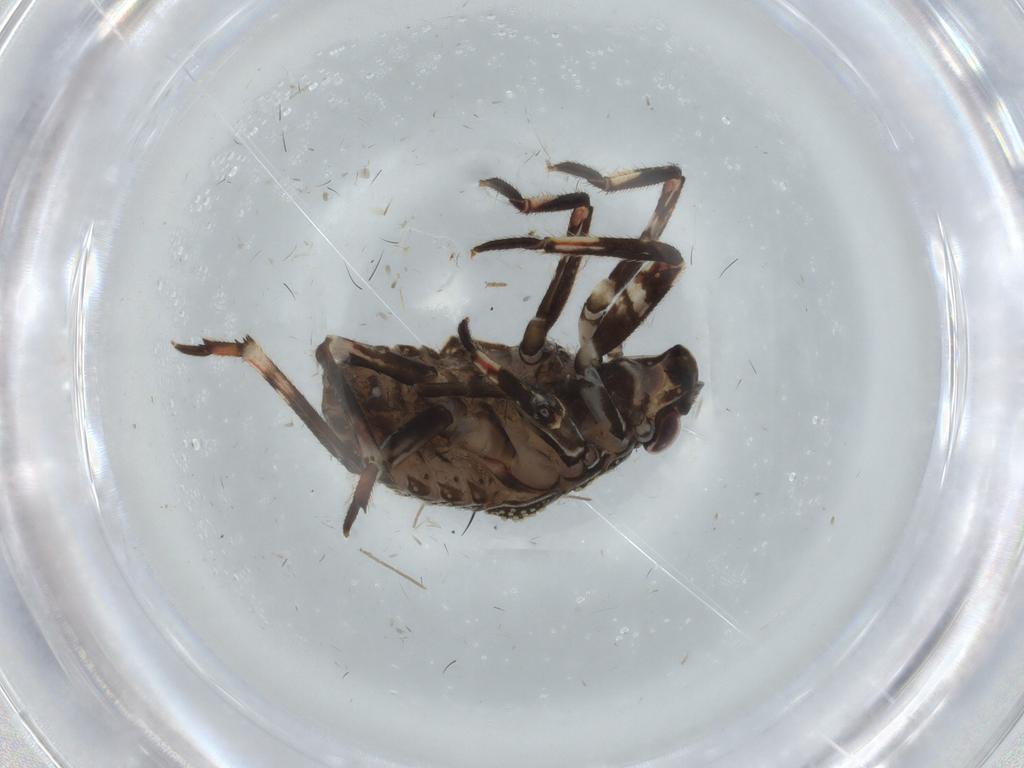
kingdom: Animalia
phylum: Arthropoda
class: Insecta
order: Hemiptera
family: Fulgoridae
